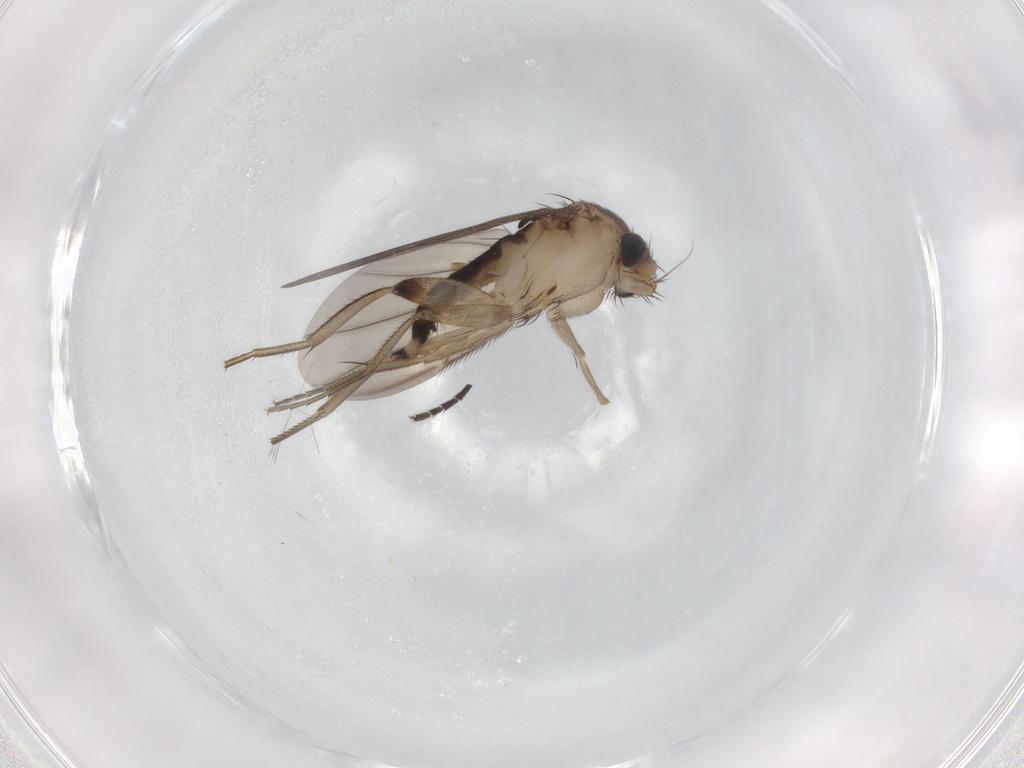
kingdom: Animalia
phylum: Arthropoda
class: Insecta
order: Diptera
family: Phoridae
